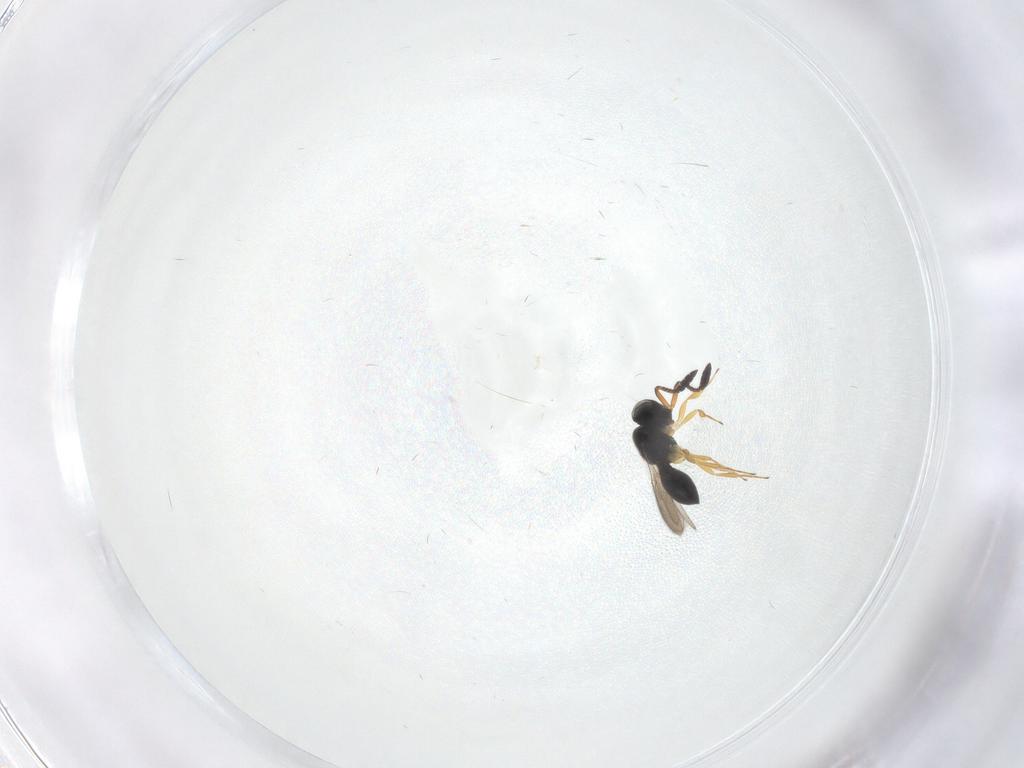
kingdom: Animalia
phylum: Arthropoda
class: Insecta
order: Hymenoptera
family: Scelionidae
